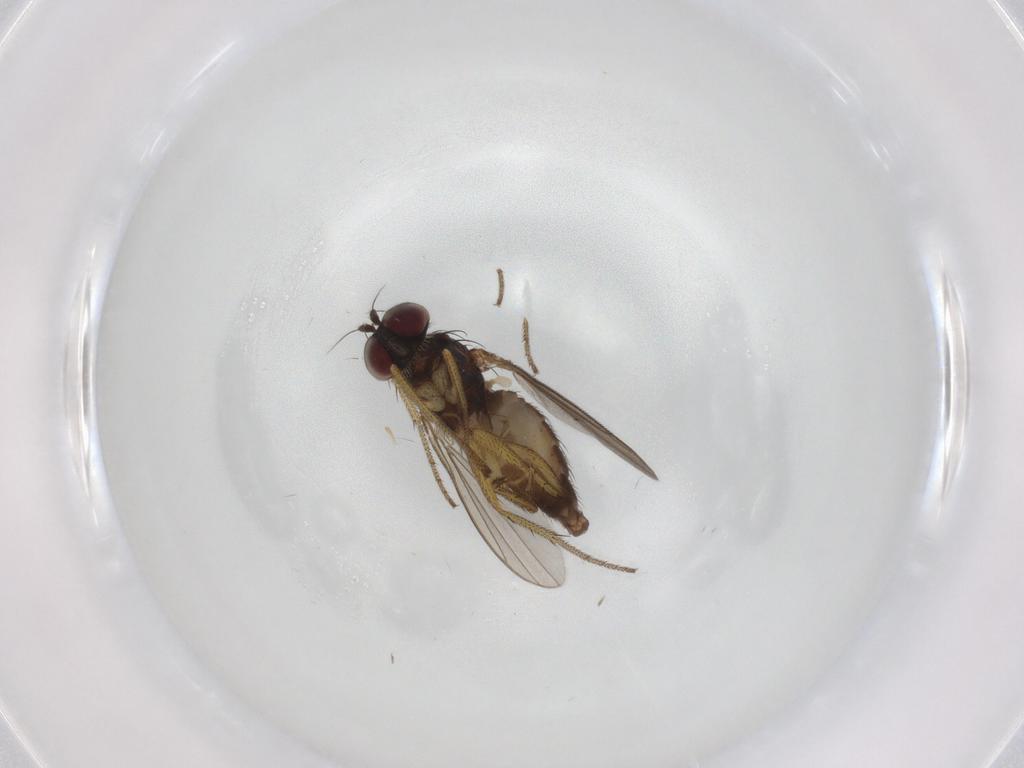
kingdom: Animalia
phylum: Arthropoda
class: Insecta
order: Diptera
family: Dolichopodidae
